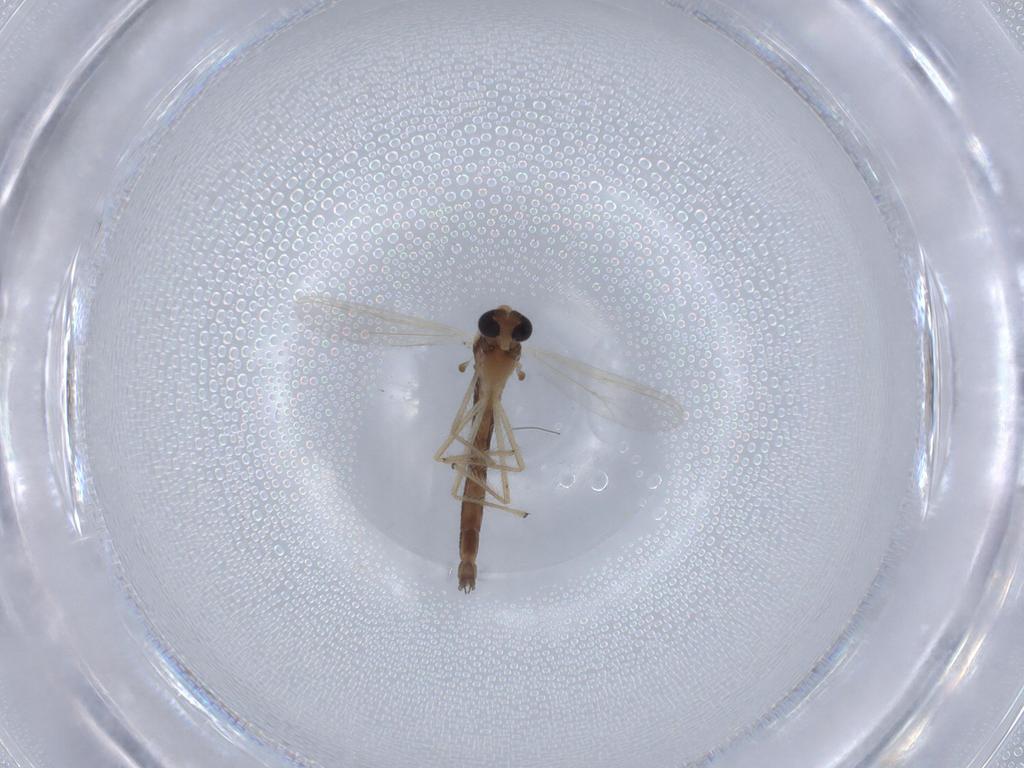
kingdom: Animalia
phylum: Arthropoda
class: Insecta
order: Diptera
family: Chironomidae
